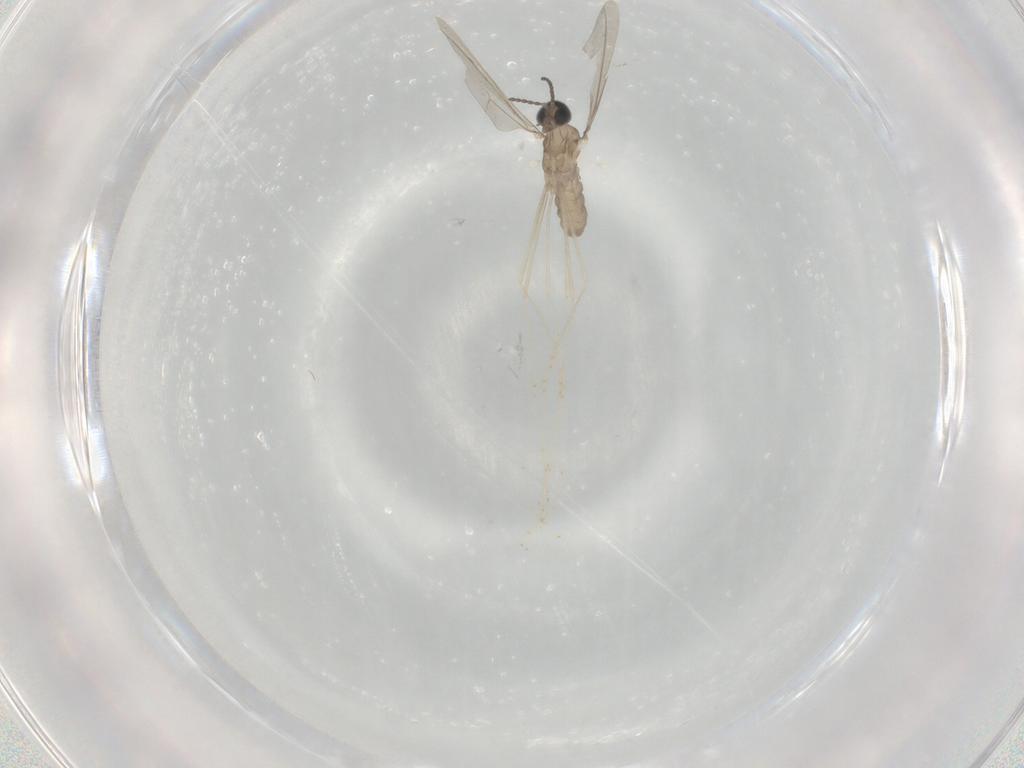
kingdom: Animalia
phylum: Arthropoda
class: Insecta
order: Diptera
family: Cecidomyiidae
